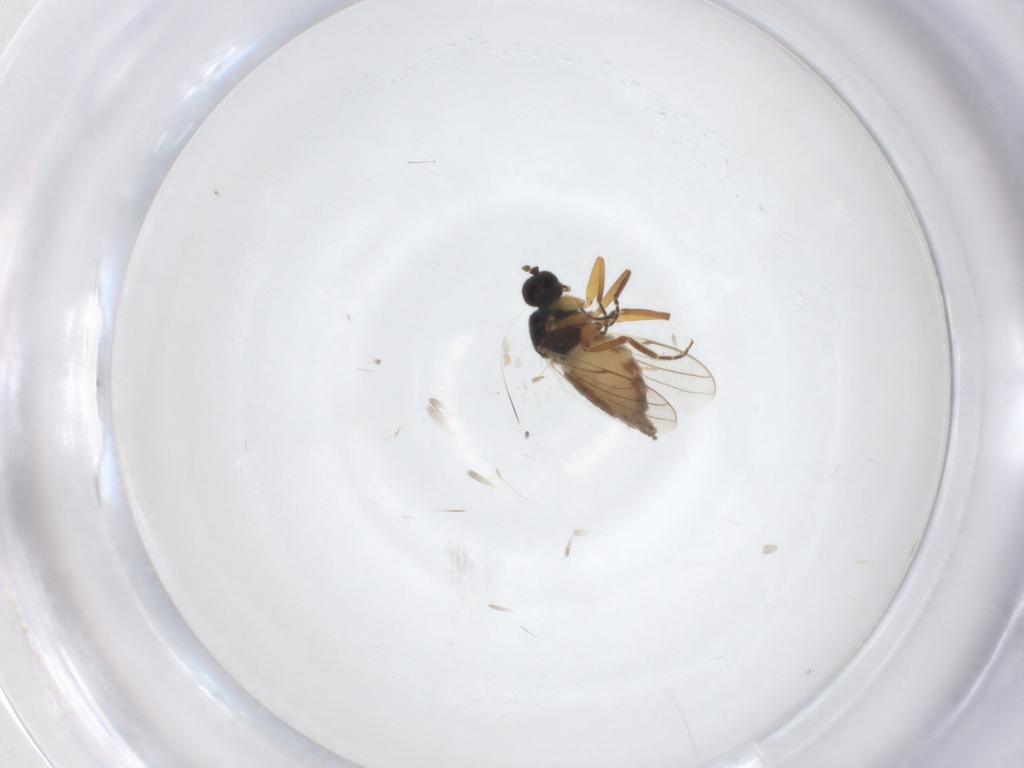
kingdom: Animalia
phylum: Arthropoda
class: Insecta
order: Diptera
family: Hybotidae
